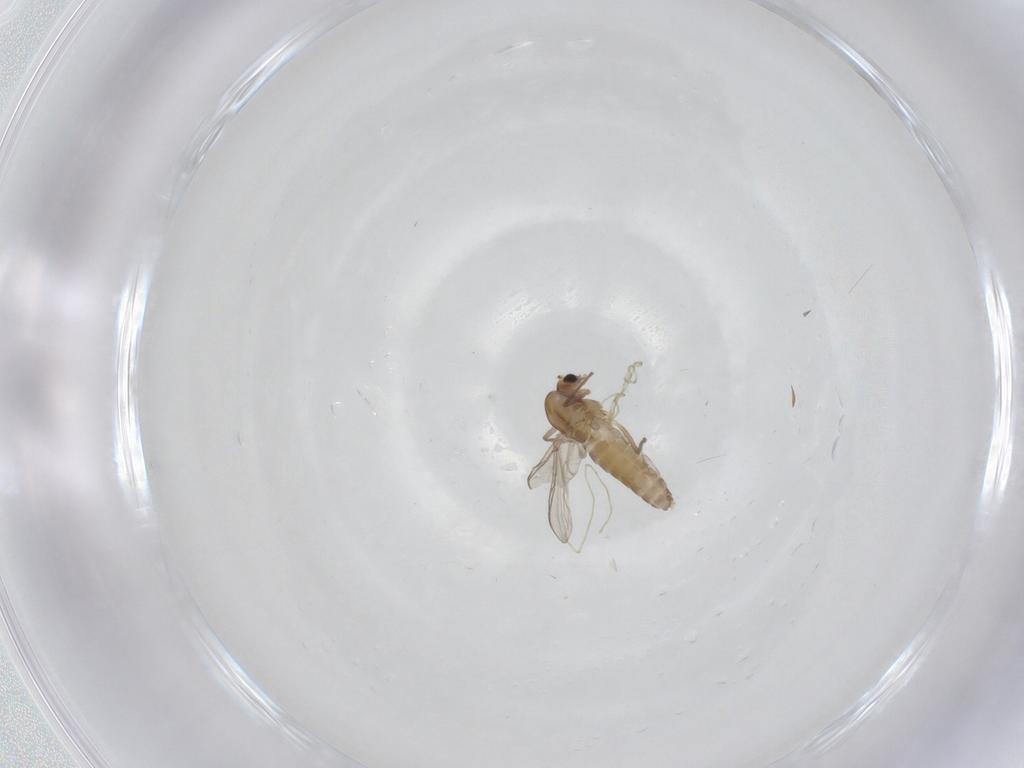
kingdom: Animalia
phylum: Arthropoda
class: Insecta
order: Diptera
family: Chironomidae
